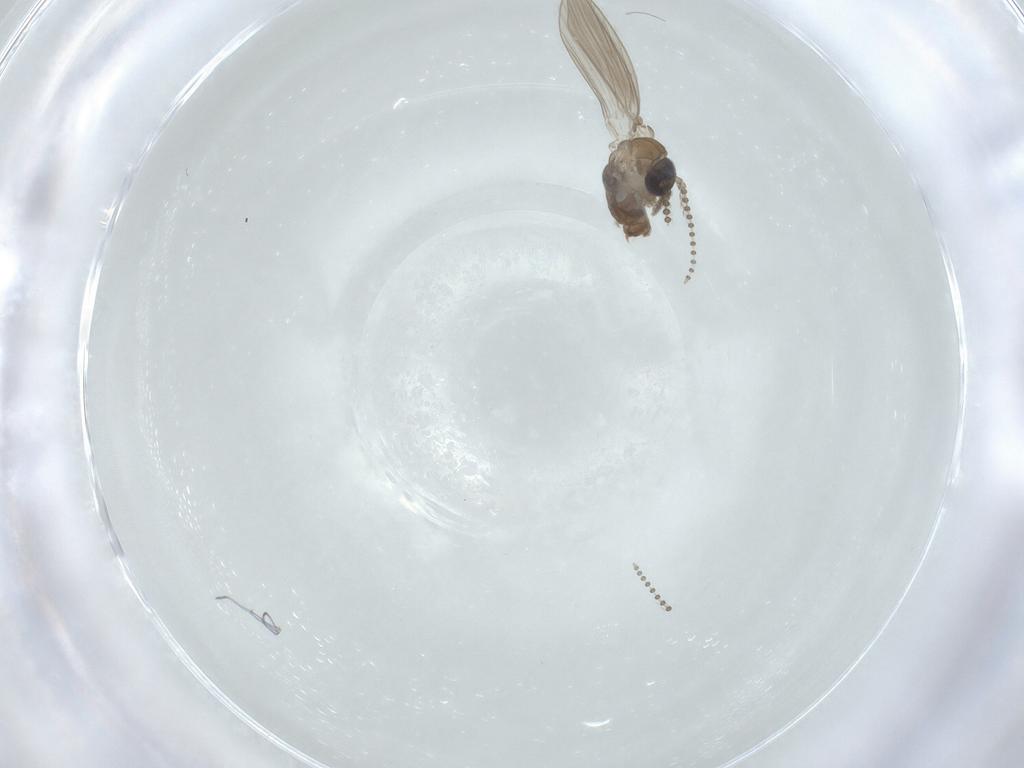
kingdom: Animalia
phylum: Arthropoda
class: Insecta
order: Diptera
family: Psychodidae
